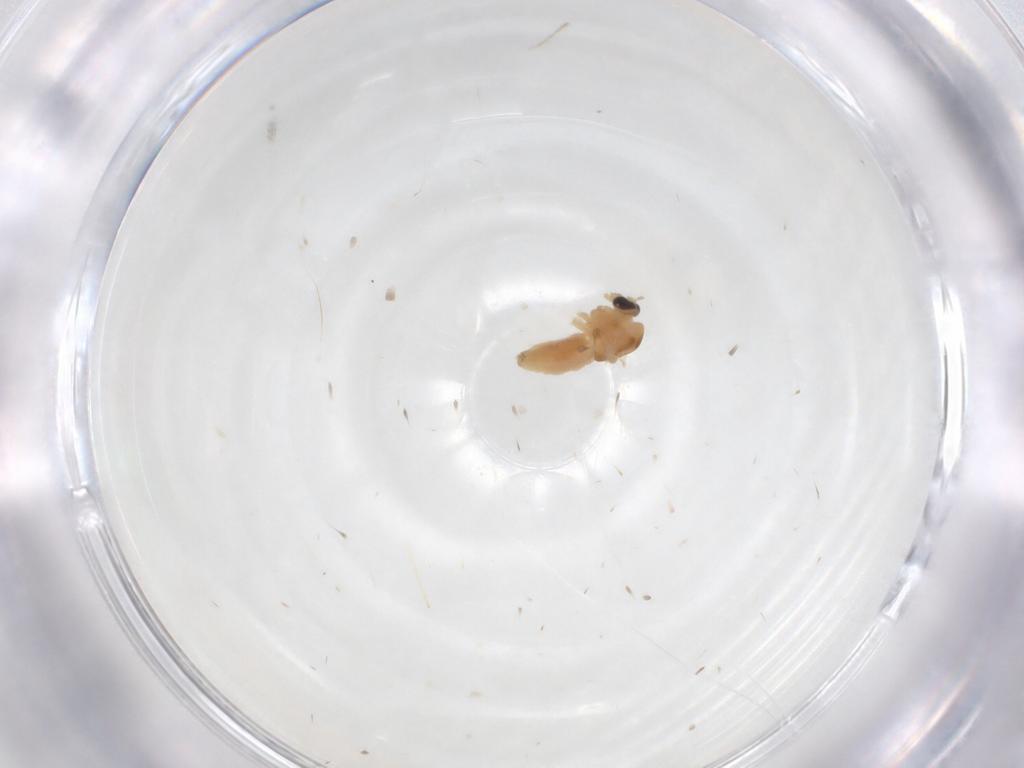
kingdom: Animalia
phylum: Arthropoda
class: Insecta
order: Diptera
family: Chironomidae
